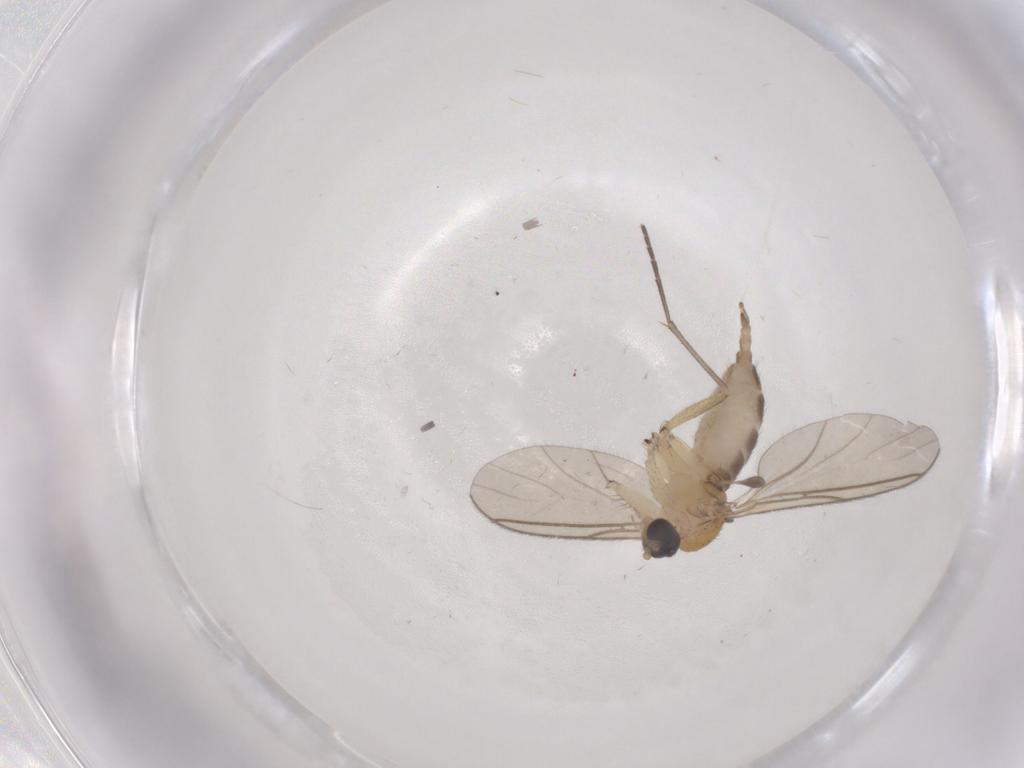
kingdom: Animalia
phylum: Arthropoda
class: Insecta
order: Diptera
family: Sciaridae
